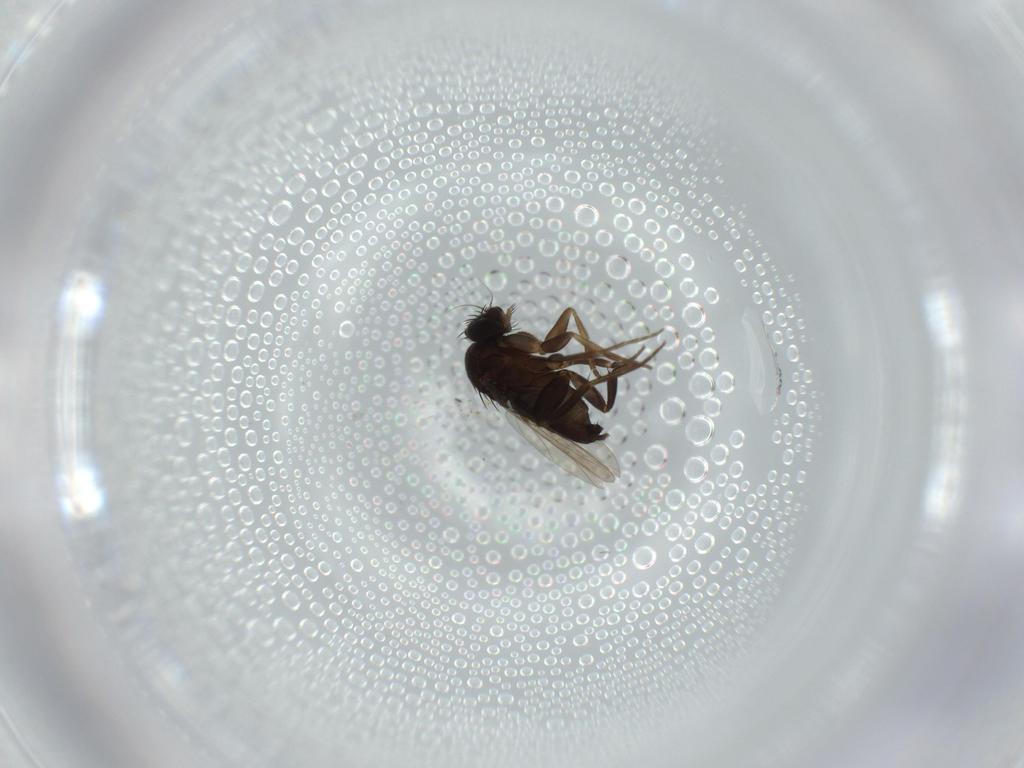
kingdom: Animalia
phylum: Arthropoda
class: Insecta
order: Diptera
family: Phoridae
